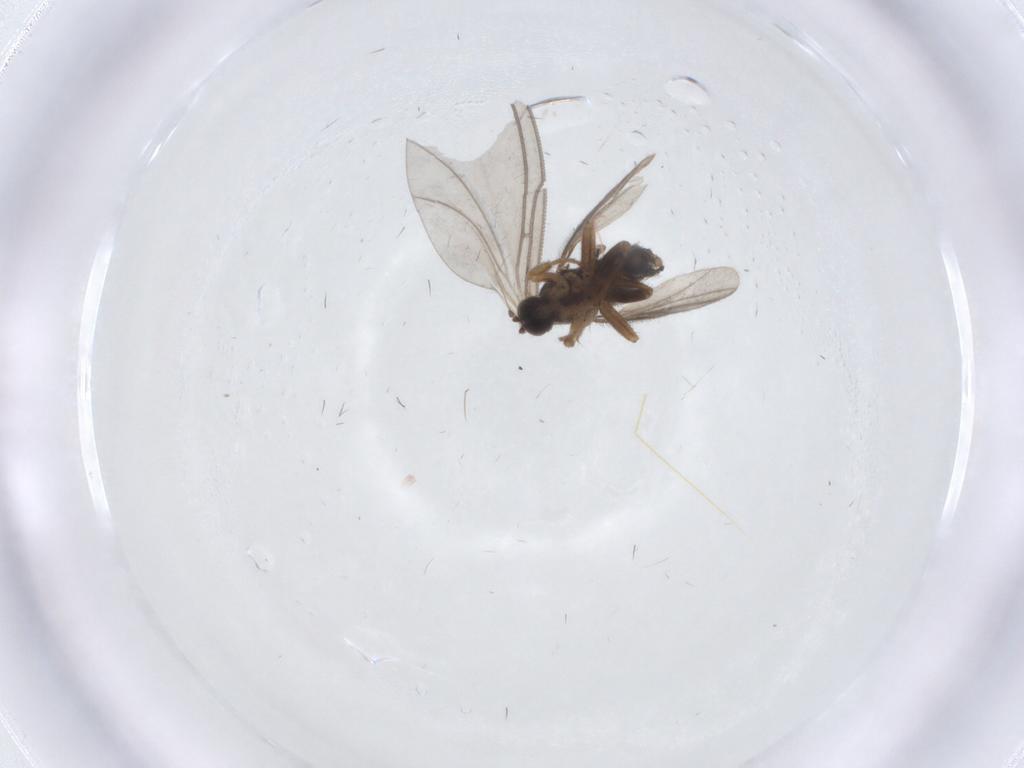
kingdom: Animalia
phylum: Arthropoda
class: Insecta
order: Diptera
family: Hybotidae
